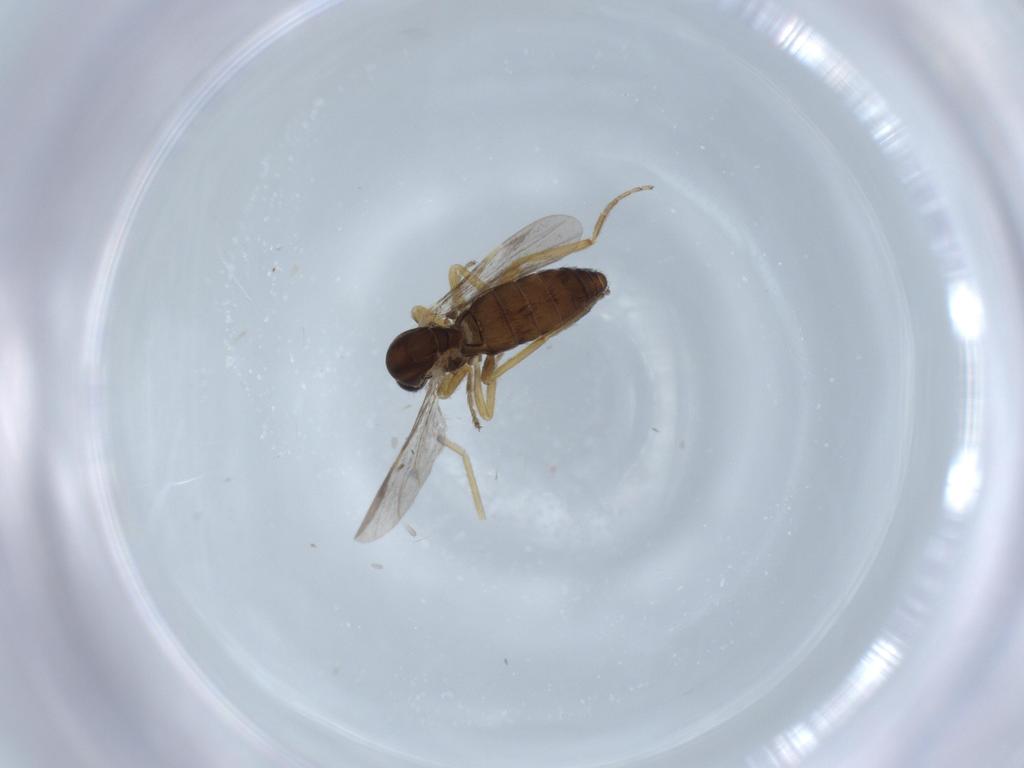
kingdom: Animalia
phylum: Arthropoda
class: Insecta
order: Diptera
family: Ceratopogonidae
